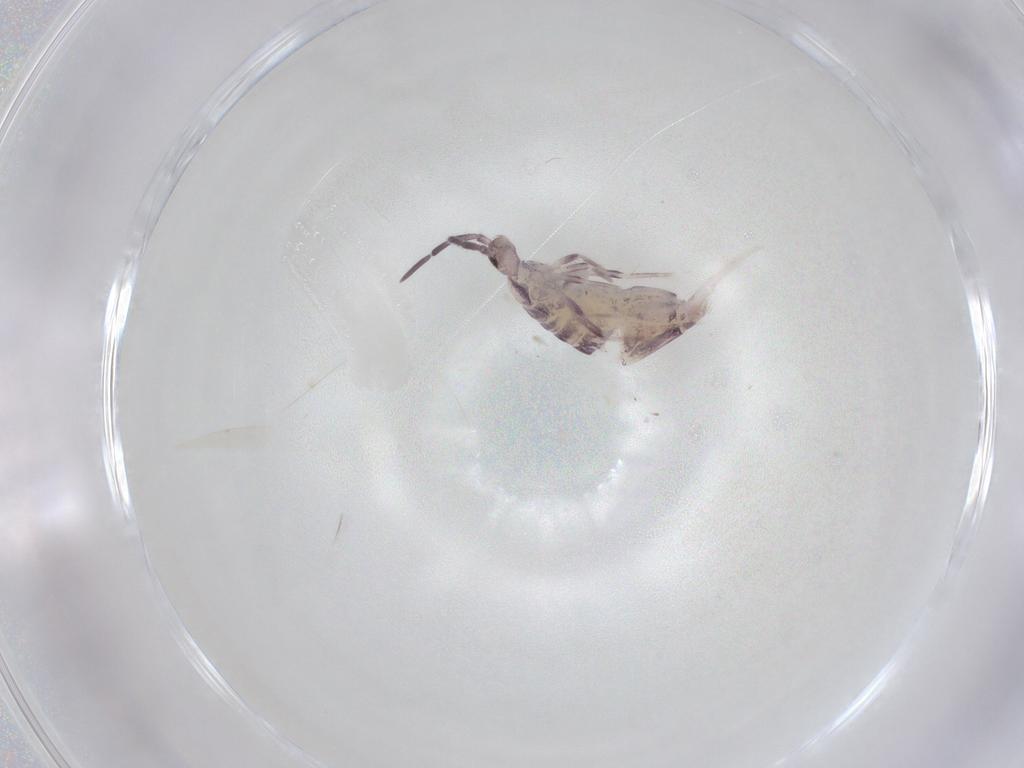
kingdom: Animalia
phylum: Arthropoda
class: Collembola
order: Poduromorpha
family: Hypogastruridae
